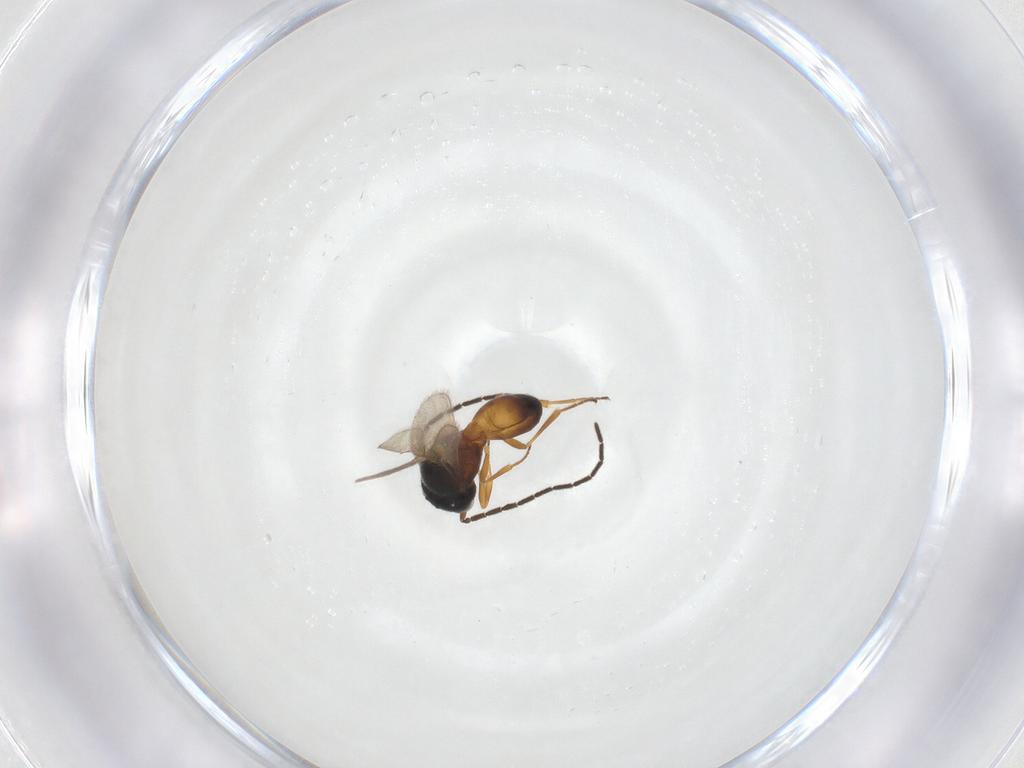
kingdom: Animalia
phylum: Arthropoda
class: Insecta
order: Hymenoptera
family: Scelionidae
